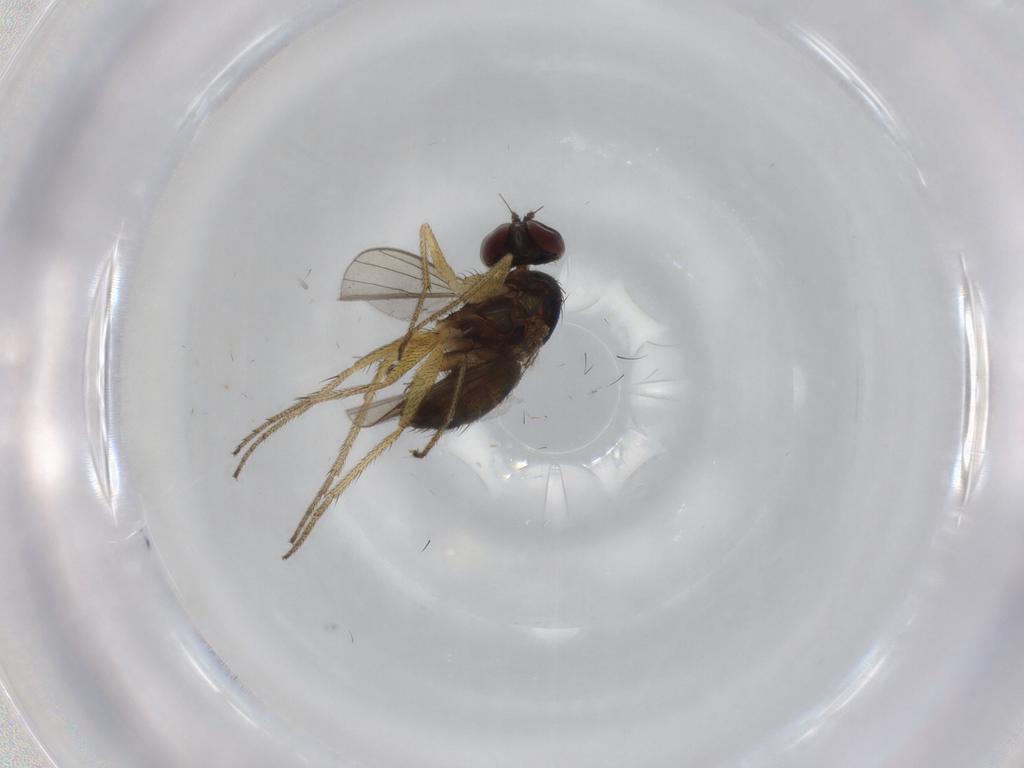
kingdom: Animalia
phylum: Arthropoda
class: Insecta
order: Diptera
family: Dolichopodidae
